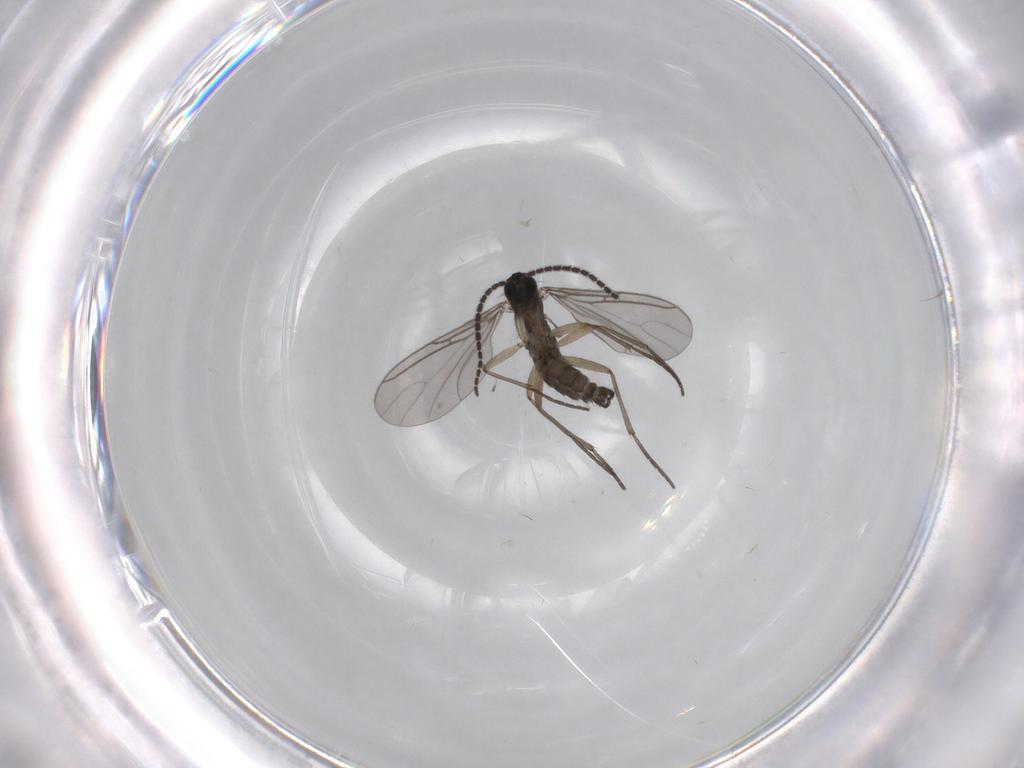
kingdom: Animalia
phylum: Arthropoda
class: Insecta
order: Diptera
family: Sciaridae
